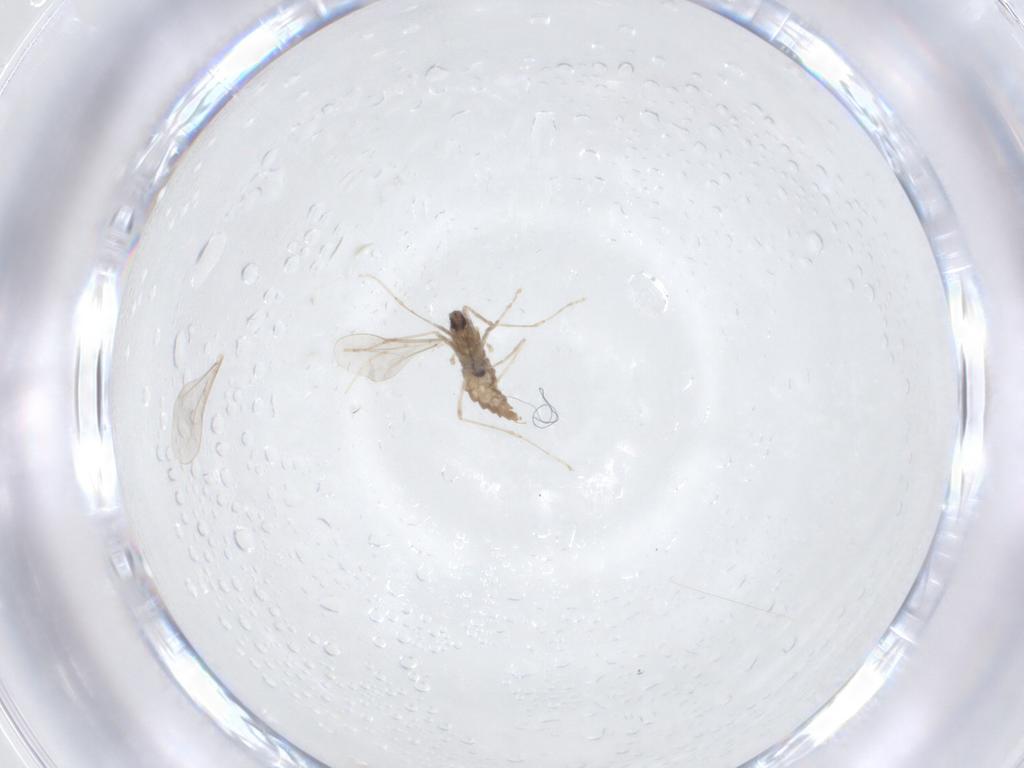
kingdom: Animalia
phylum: Arthropoda
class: Insecta
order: Diptera
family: Cecidomyiidae
